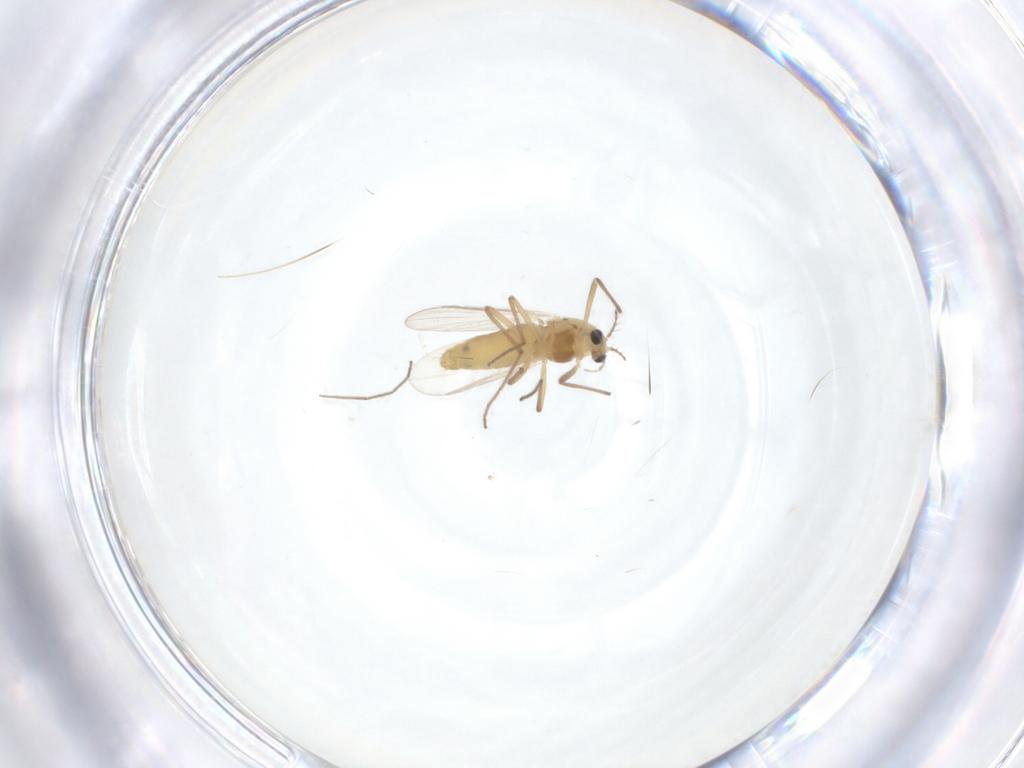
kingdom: Animalia
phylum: Arthropoda
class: Insecta
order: Diptera
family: Chironomidae
